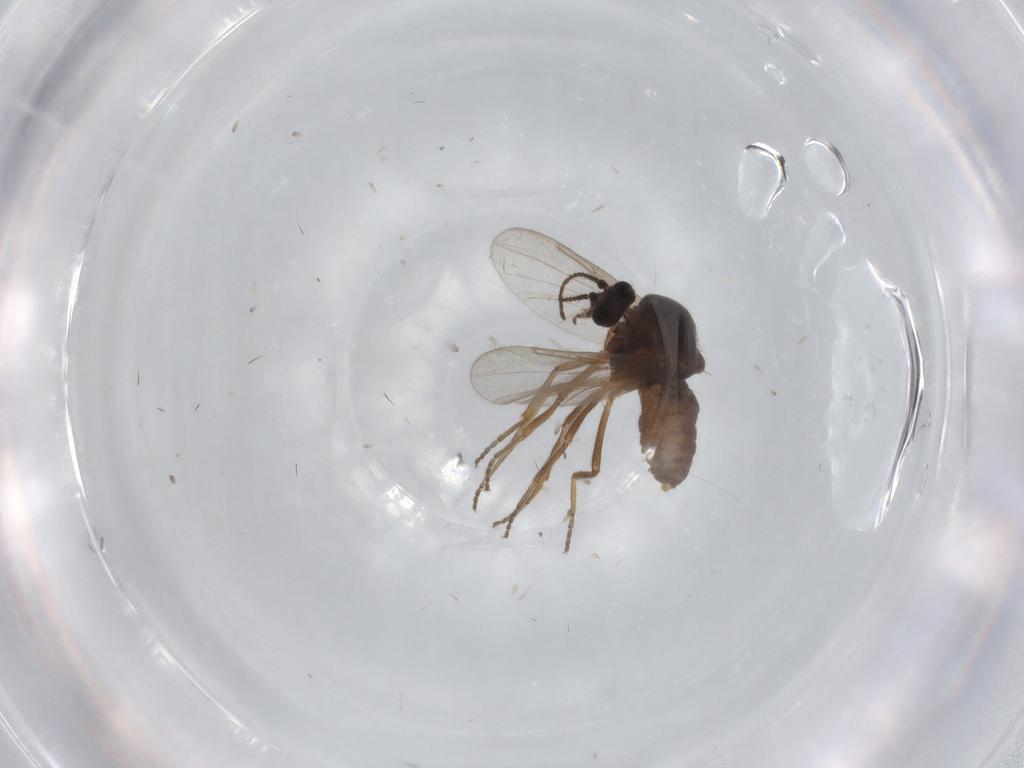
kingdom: Animalia
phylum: Arthropoda
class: Insecta
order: Diptera
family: Ceratopogonidae
